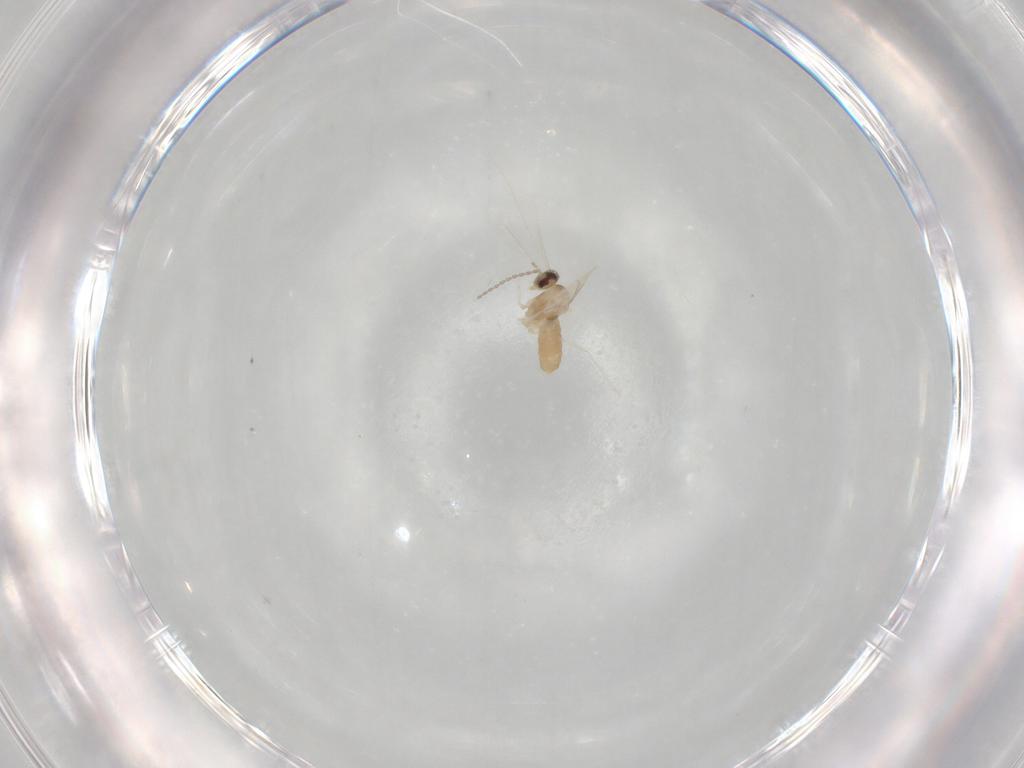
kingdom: Animalia
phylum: Arthropoda
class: Insecta
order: Diptera
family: Cecidomyiidae
